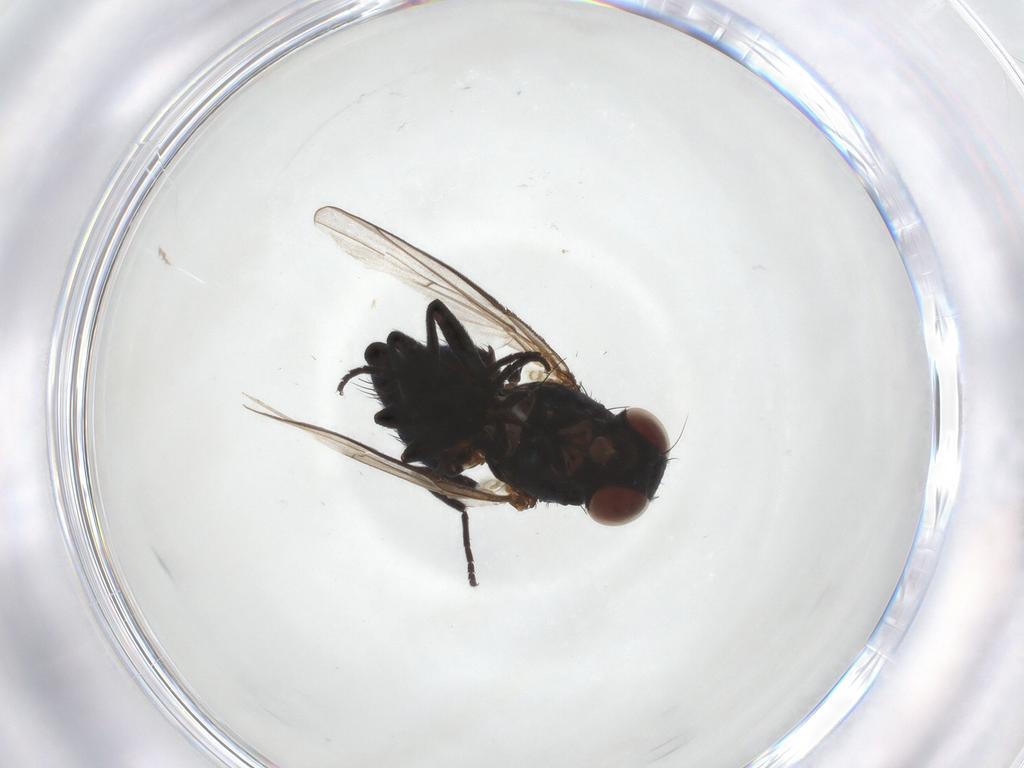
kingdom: Animalia
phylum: Arthropoda
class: Insecta
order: Diptera
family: Agromyzidae
